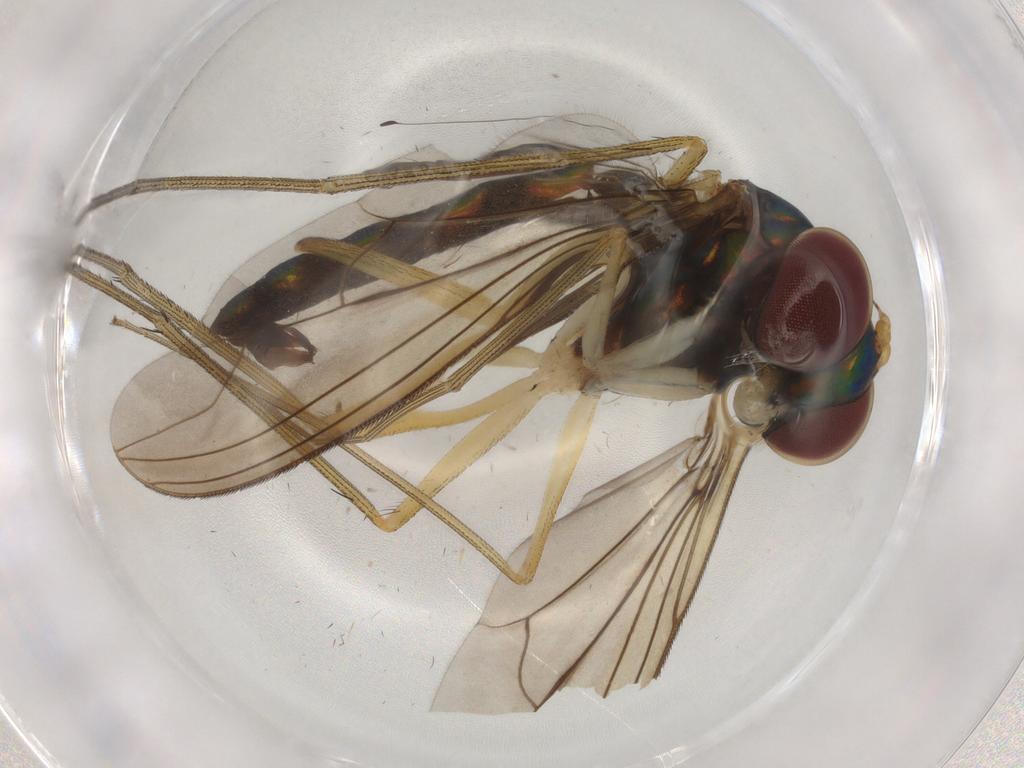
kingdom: Animalia
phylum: Arthropoda
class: Insecta
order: Diptera
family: Dolichopodidae
